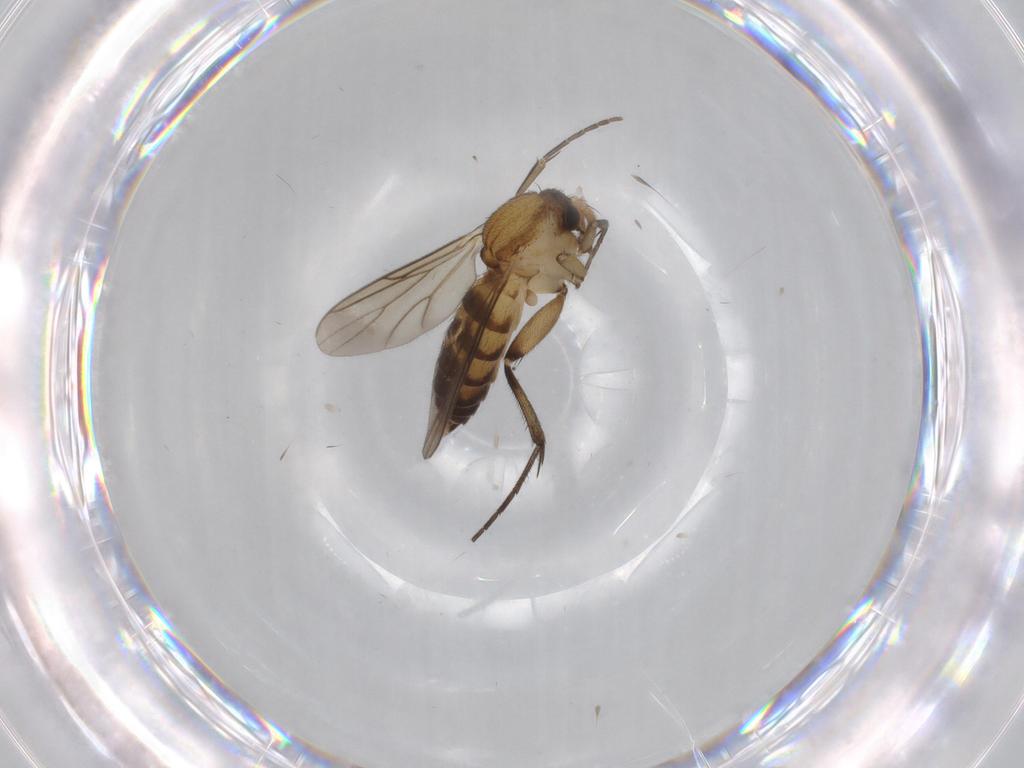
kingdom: Animalia
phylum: Arthropoda
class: Insecta
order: Diptera
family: Mycetophilidae
